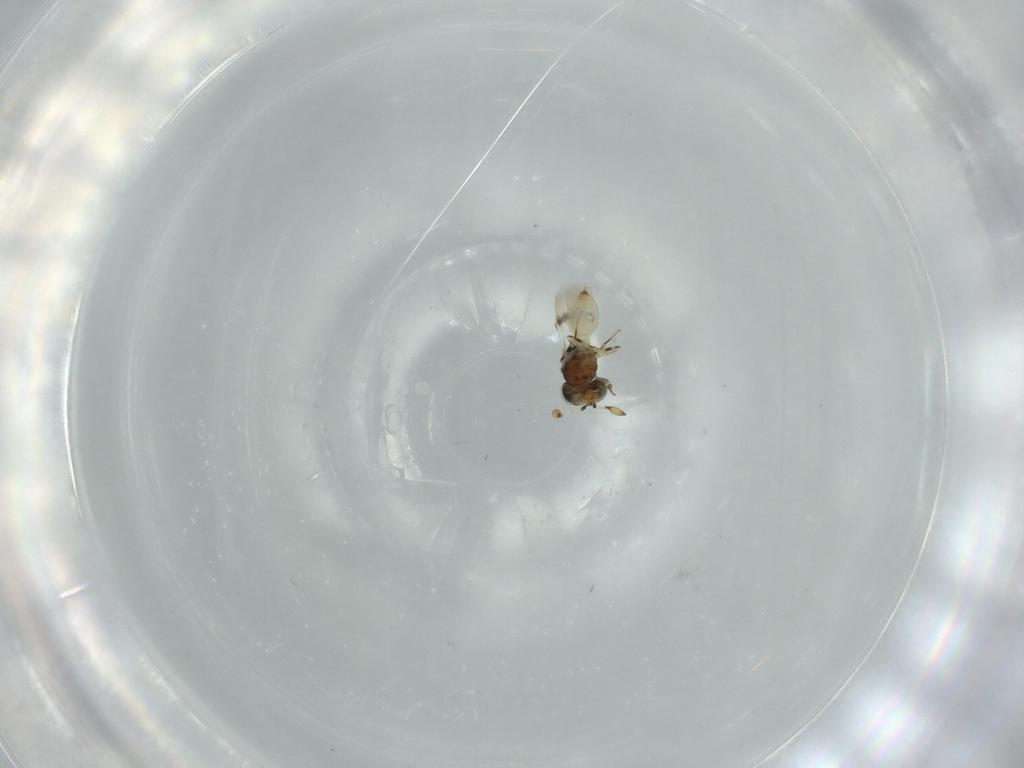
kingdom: Animalia
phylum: Arthropoda
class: Insecta
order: Hymenoptera
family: Scelionidae
